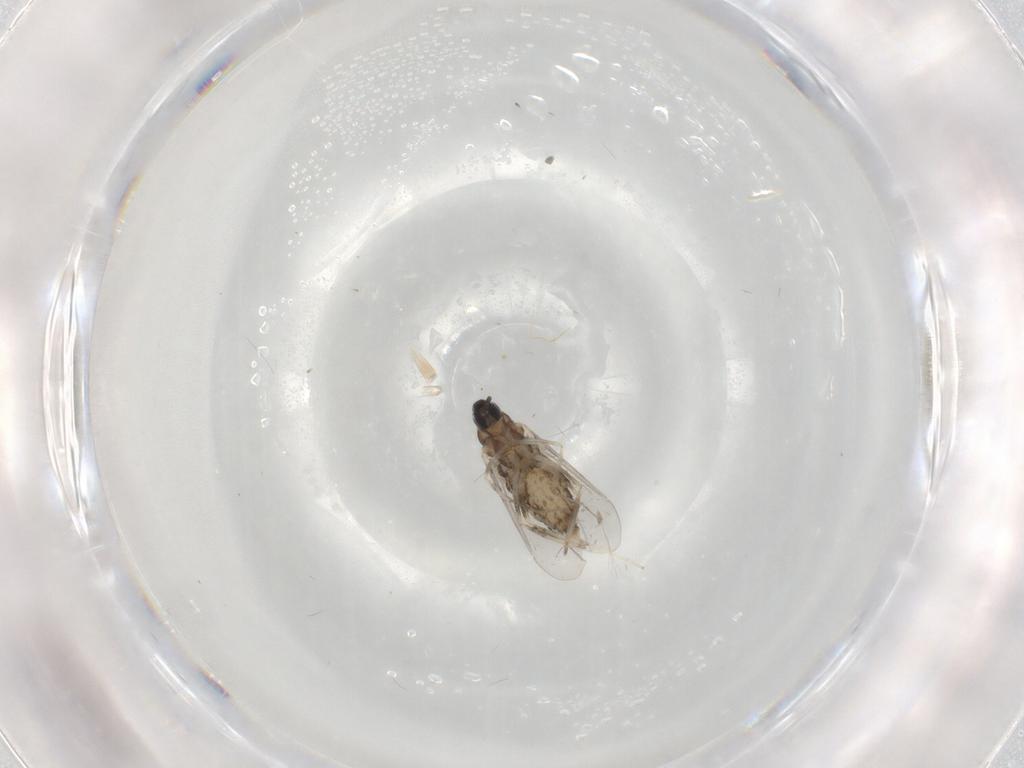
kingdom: Animalia
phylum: Arthropoda
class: Insecta
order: Diptera
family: Cecidomyiidae
